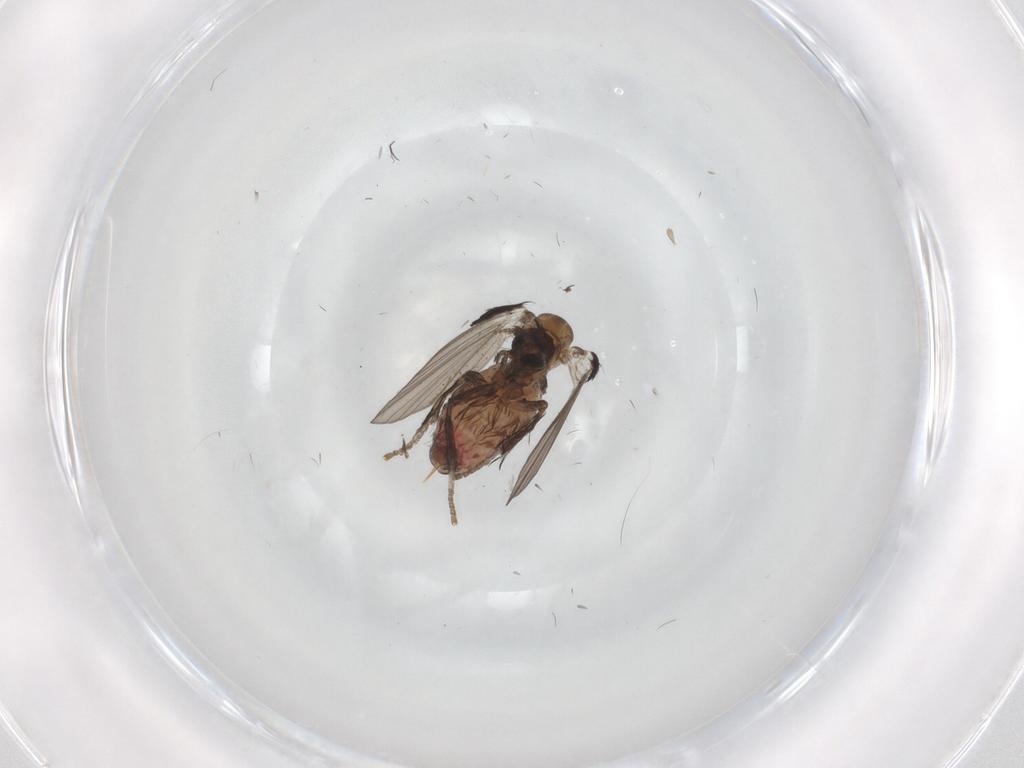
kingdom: Animalia
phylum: Arthropoda
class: Insecta
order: Diptera
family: Psychodidae
